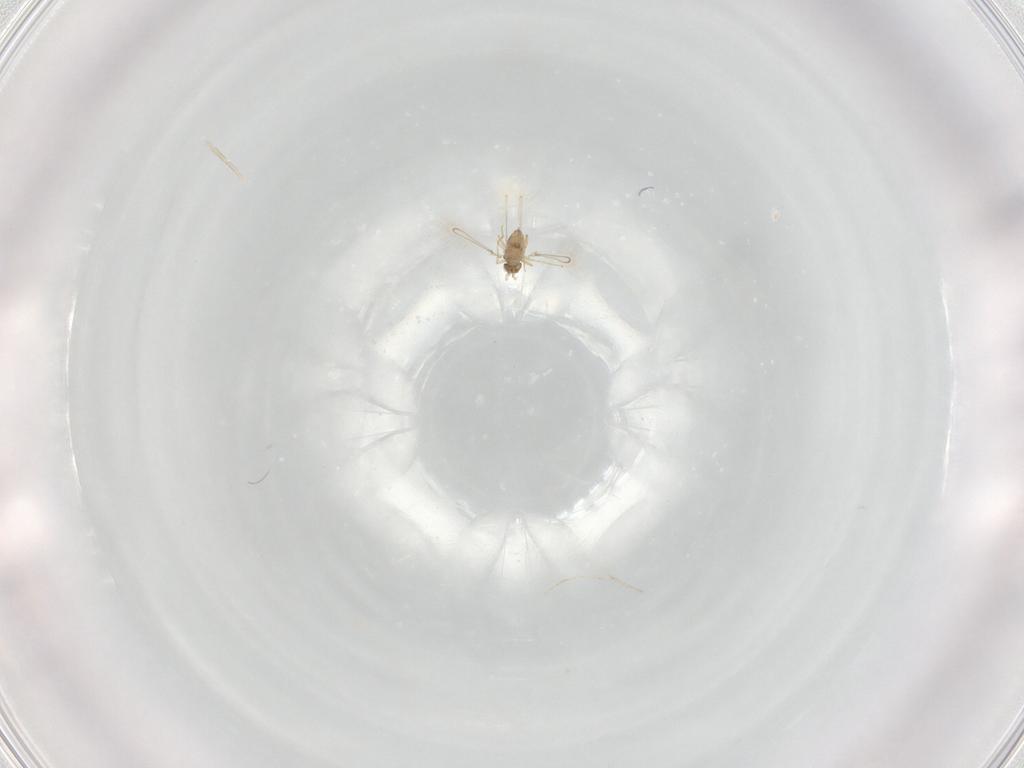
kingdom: Animalia
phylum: Arthropoda
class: Insecta
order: Hymenoptera
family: Braconidae
